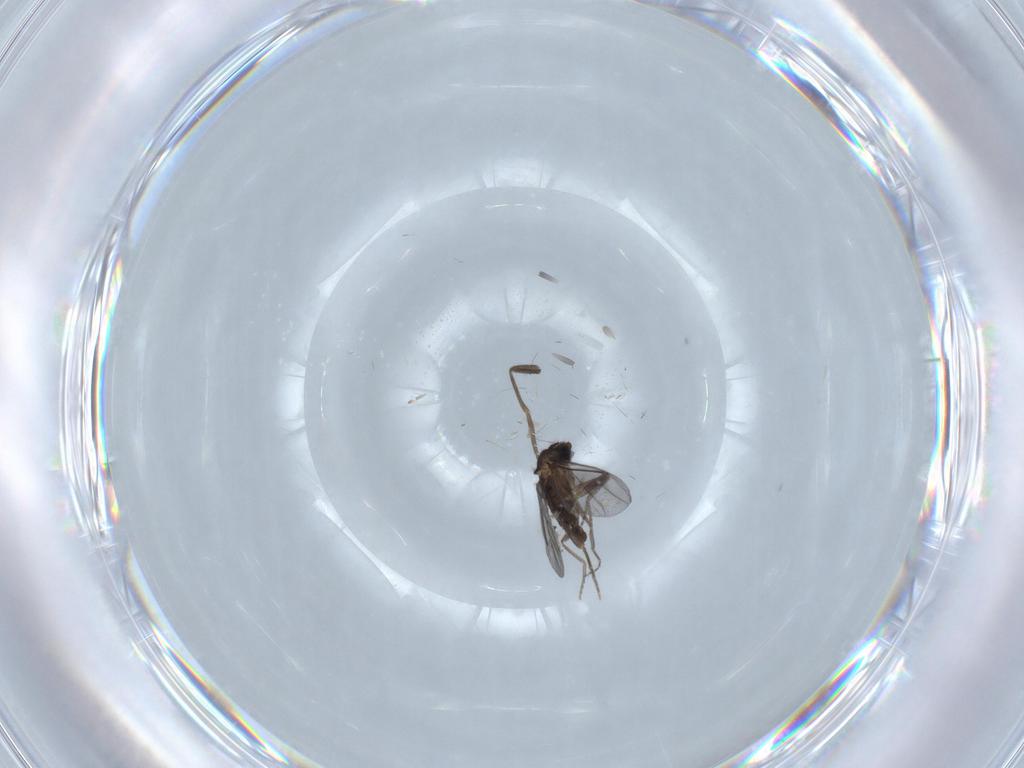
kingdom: Animalia
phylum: Arthropoda
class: Insecta
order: Diptera
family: Phoridae
